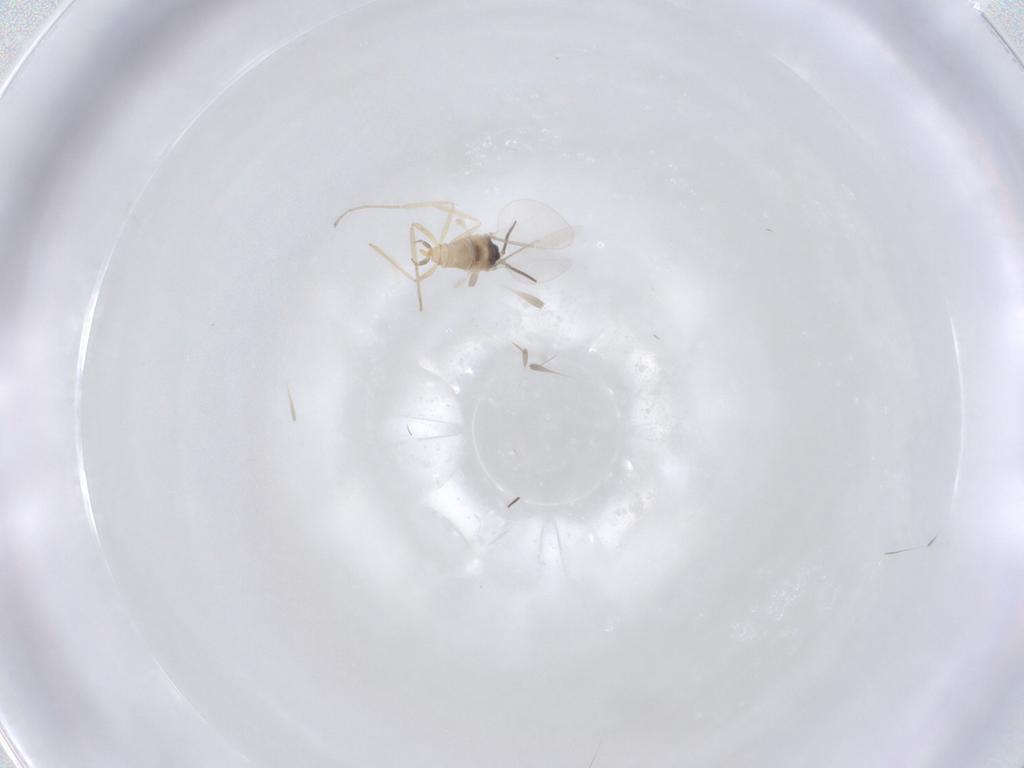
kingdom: Animalia
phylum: Arthropoda
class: Insecta
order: Diptera
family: Cecidomyiidae
